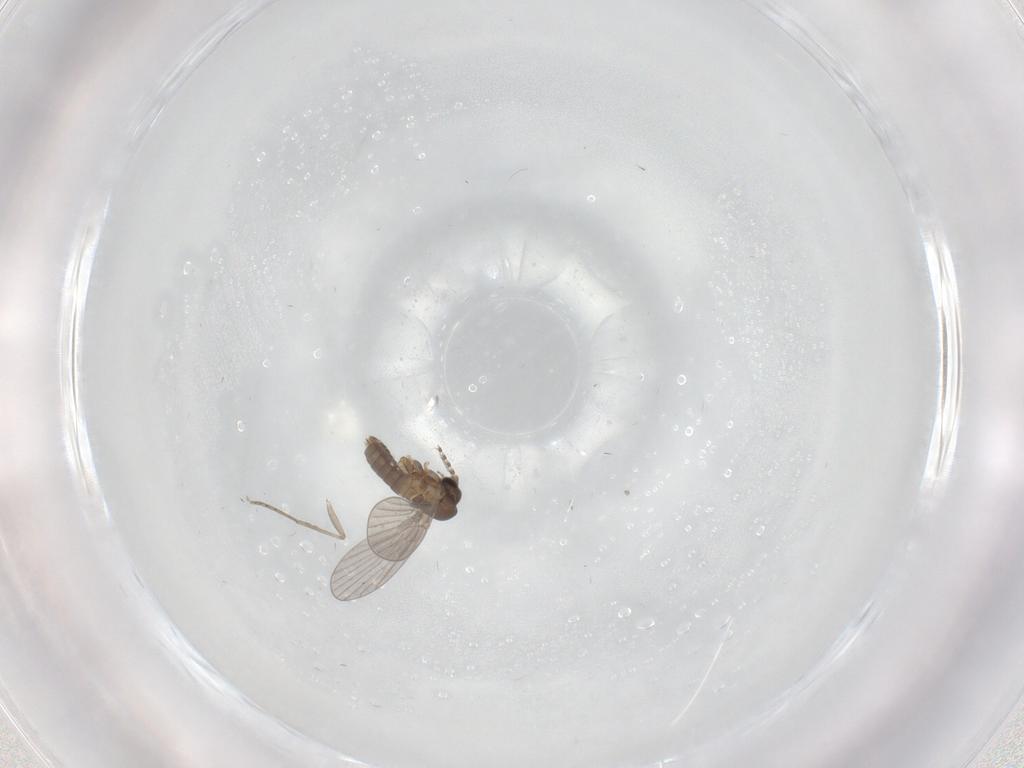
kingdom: Animalia
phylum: Arthropoda
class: Insecta
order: Diptera
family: Psychodidae
